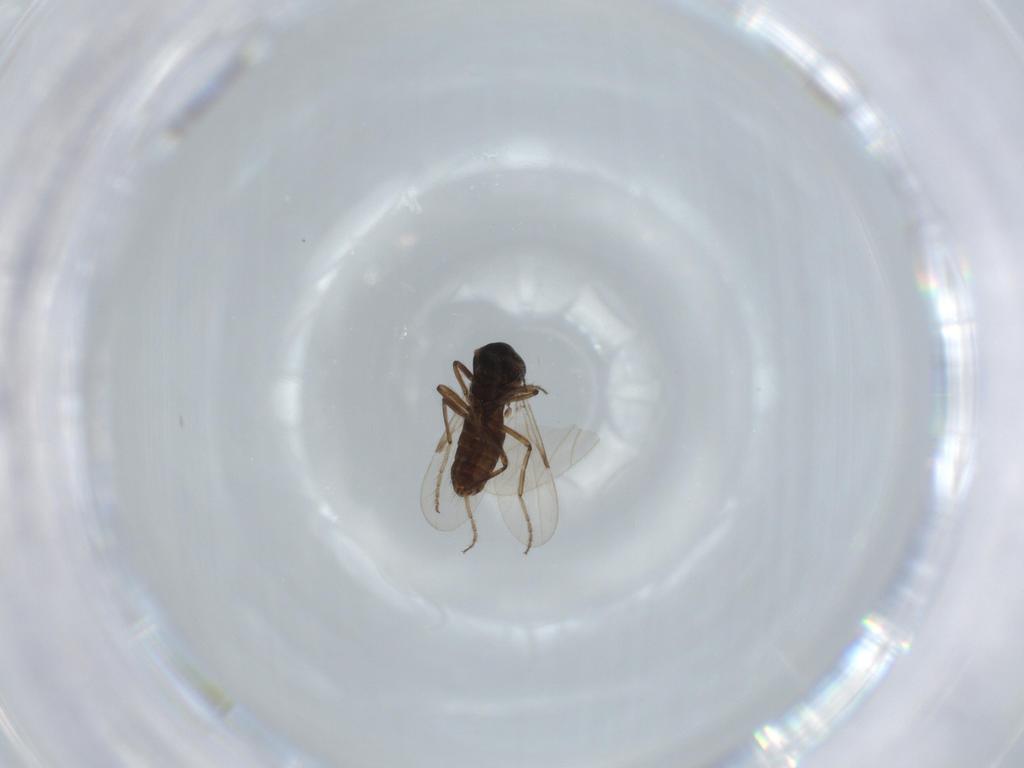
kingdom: Animalia
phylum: Arthropoda
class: Insecta
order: Diptera
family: Chironomidae
